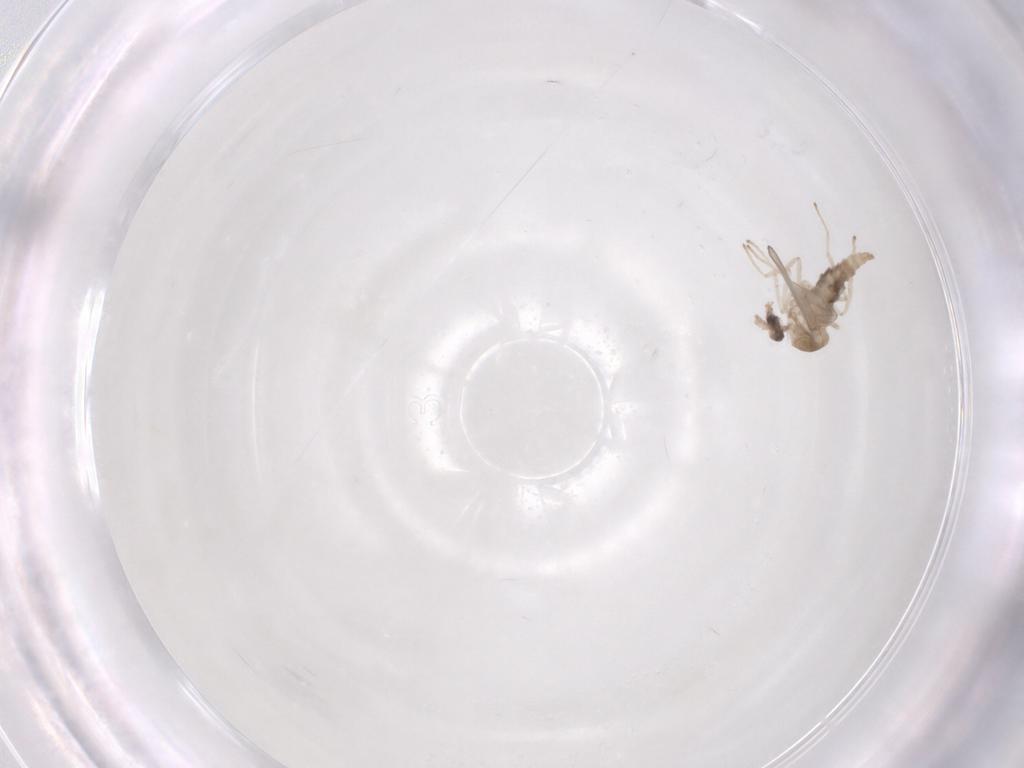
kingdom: Animalia
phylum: Arthropoda
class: Insecta
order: Diptera
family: Cecidomyiidae
